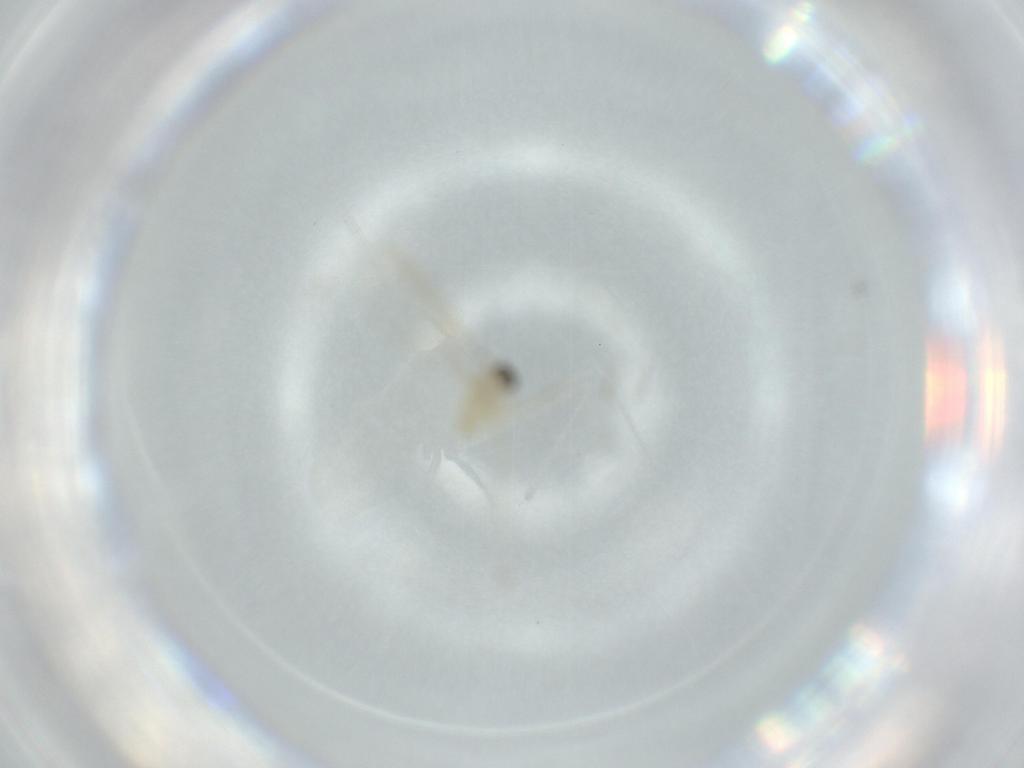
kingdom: Animalia
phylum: Arthropoda
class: Insecta
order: Diptera
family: Cecidomyiidae
